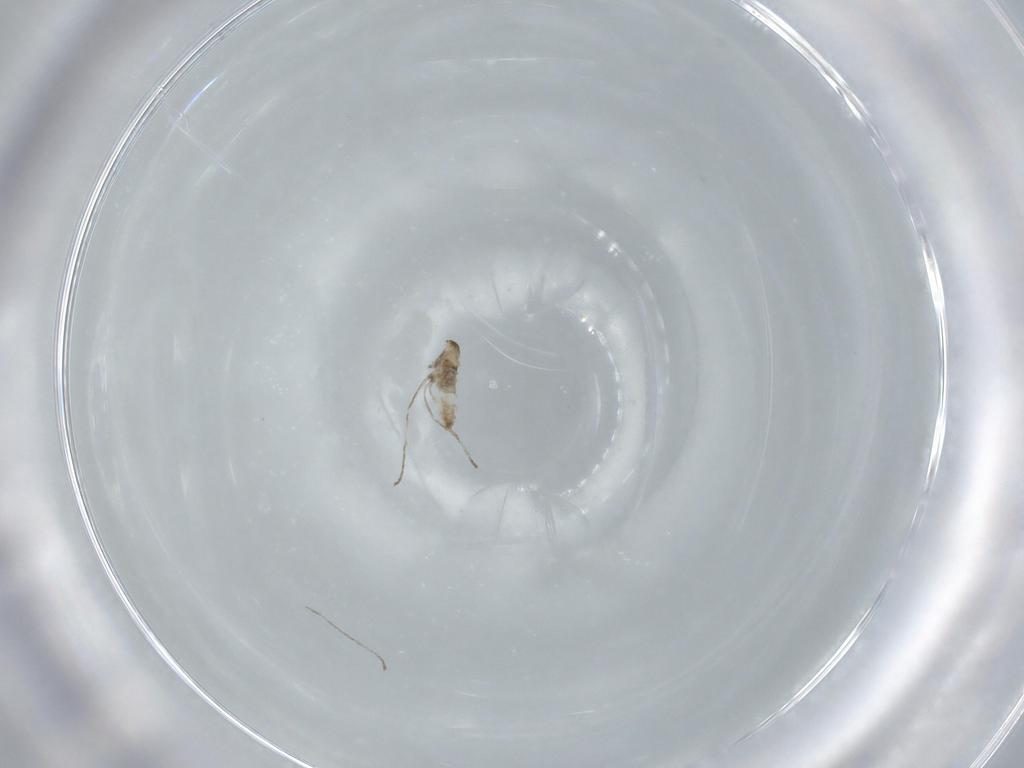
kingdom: Animalia
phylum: Arthropoda
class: Insecta
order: Diptera
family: Cecidomyiidae
